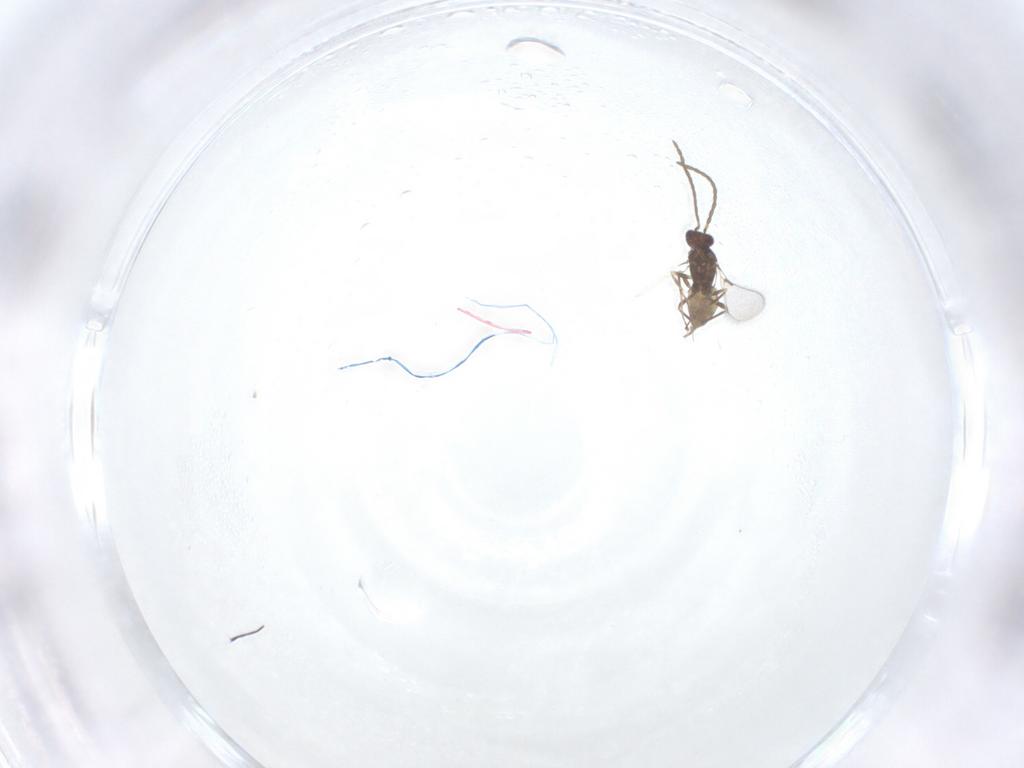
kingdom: Animalia
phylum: Arthropoda
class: Insecta
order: Hymenoptera
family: Mymaridae
